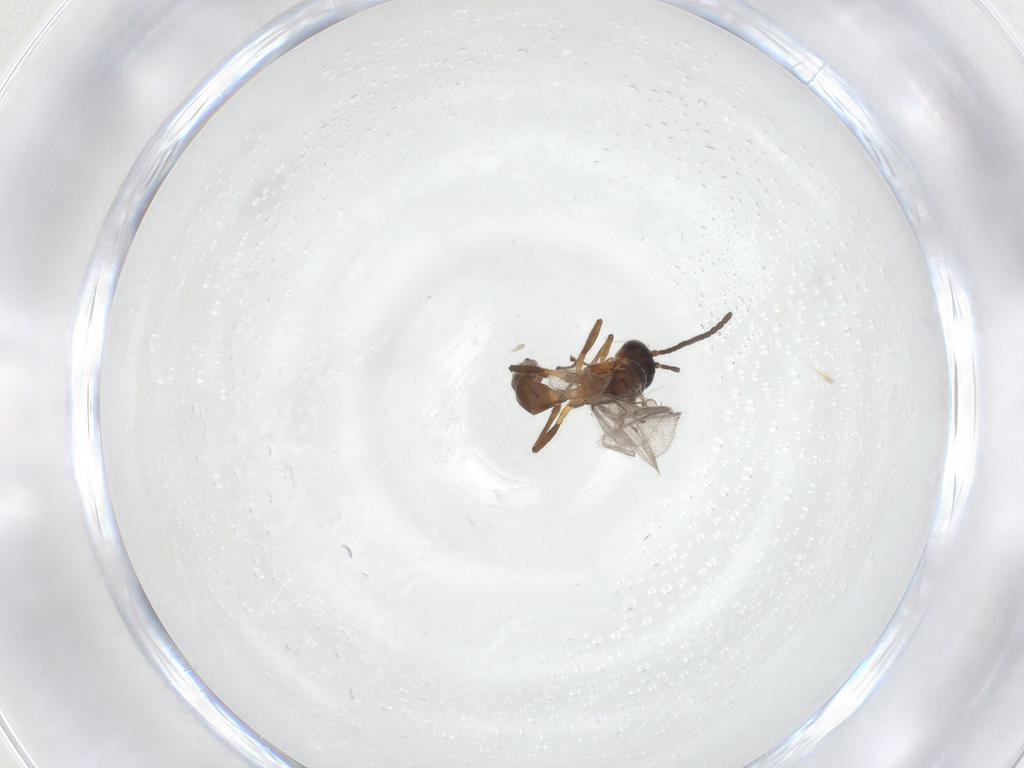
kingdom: Animalia
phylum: Arthropoda
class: Insecta
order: Hymenoptera
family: Braconidae
